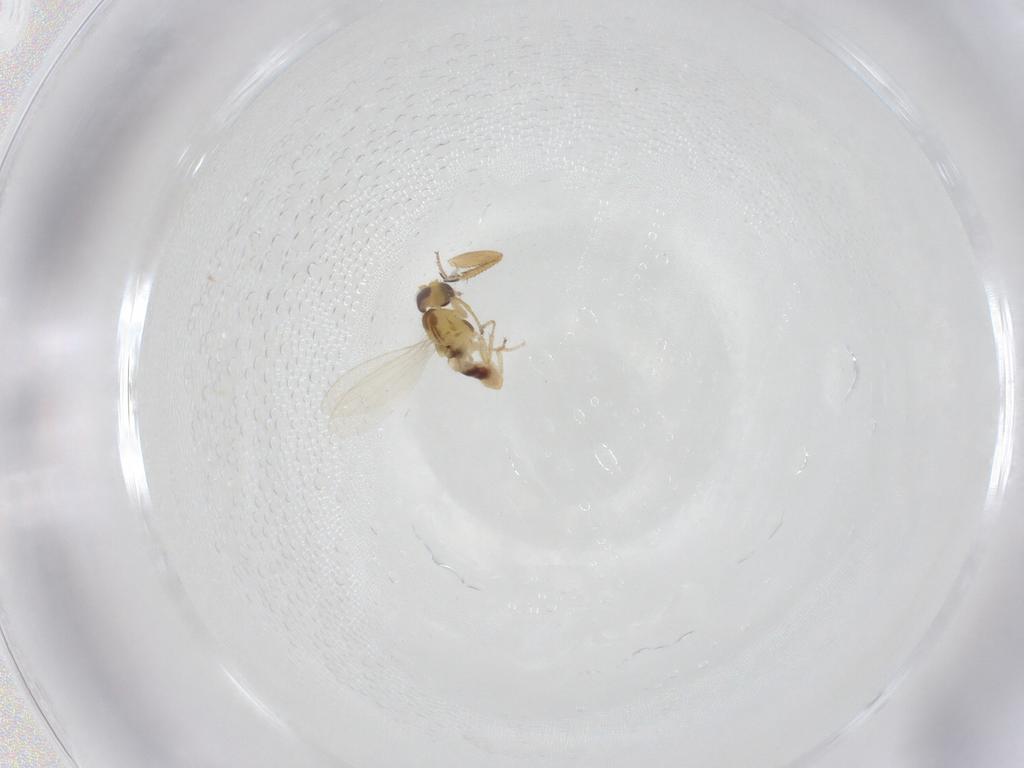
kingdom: Animalia
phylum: Arthropoda
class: Insecta
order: Diptera
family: Periscelididae
